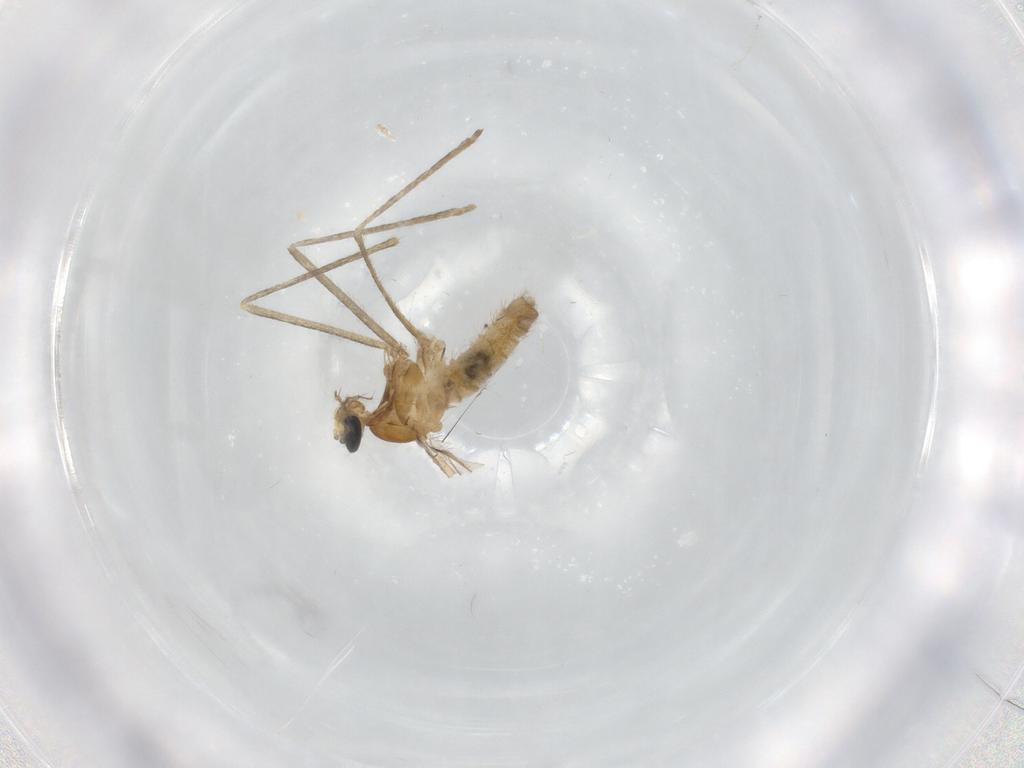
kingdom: Animalia
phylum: Arthropoda
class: Insecta
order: Diptera
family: Cecidomyiidae
